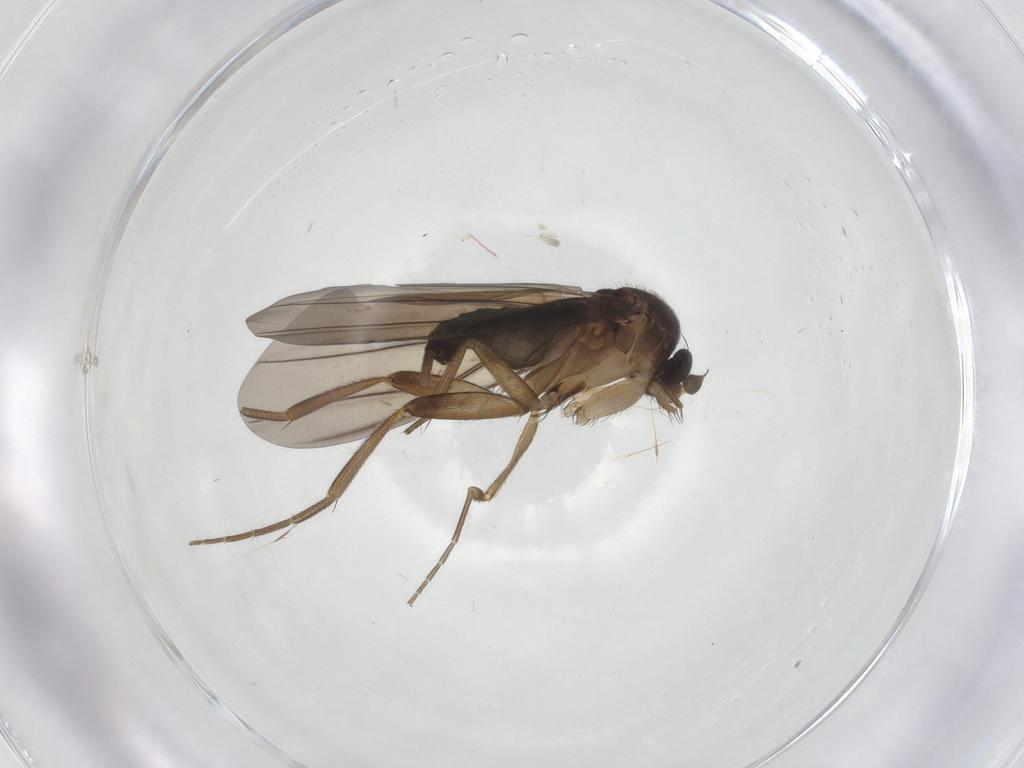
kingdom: Animalia
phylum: Arthropoda
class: Insecta
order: Diptera
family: Phoridae
